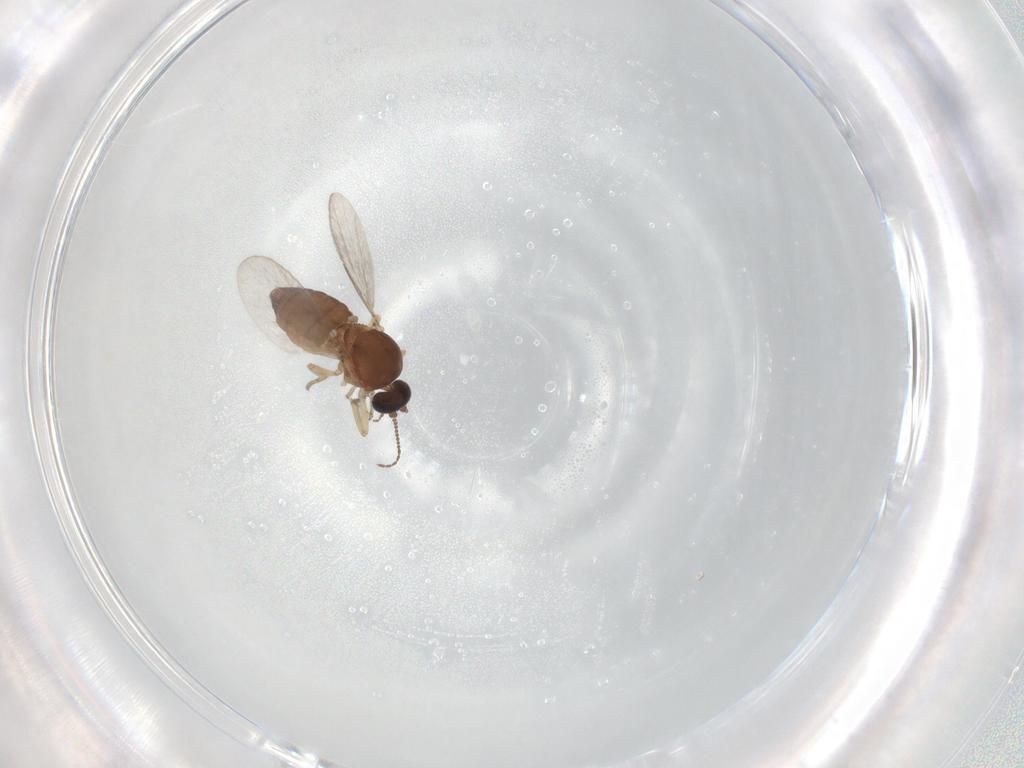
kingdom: Animalia
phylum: Arthropoda
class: Insecta
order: Diptera
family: Ceratopogonidae
